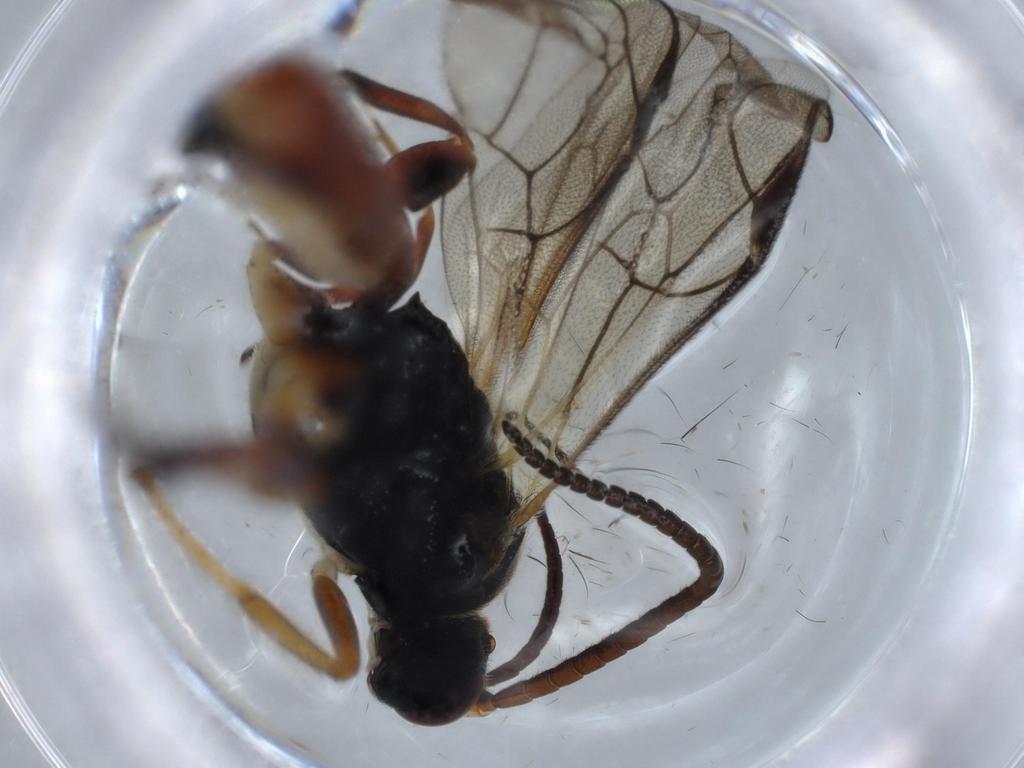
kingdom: Animalia
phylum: Arthropoda
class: Insecta
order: Hymenoptera
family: Ichneumonidae
